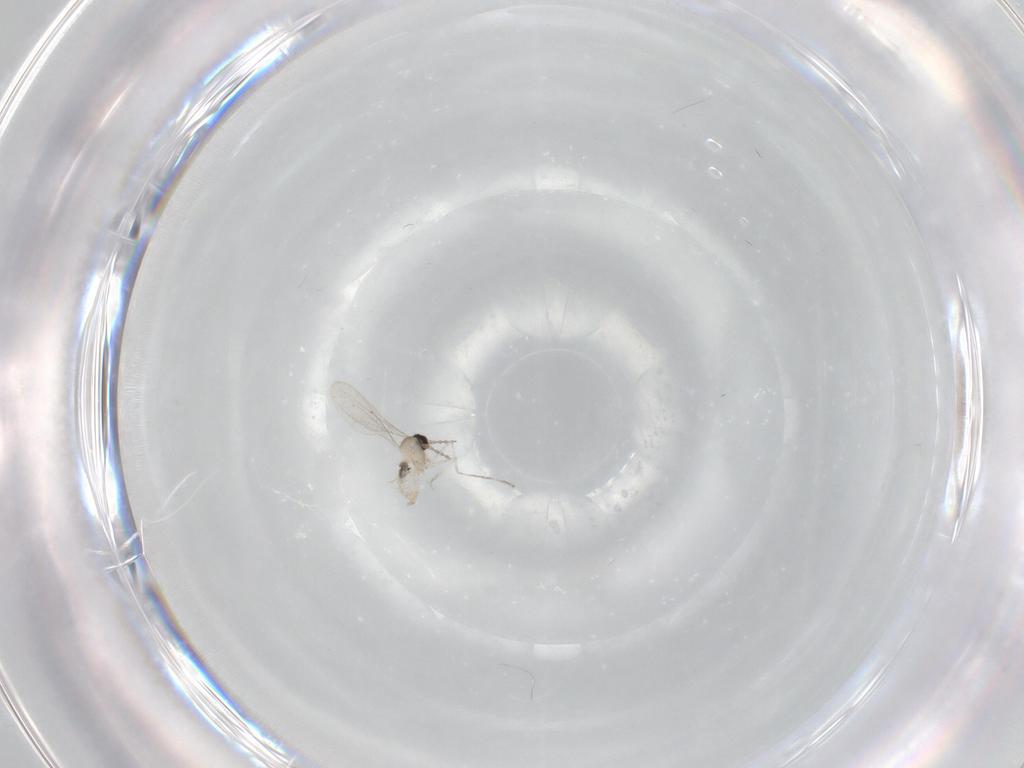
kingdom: Animalia
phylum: Arthropoda
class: Insecta
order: Diptera
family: Cecidomyiidae
